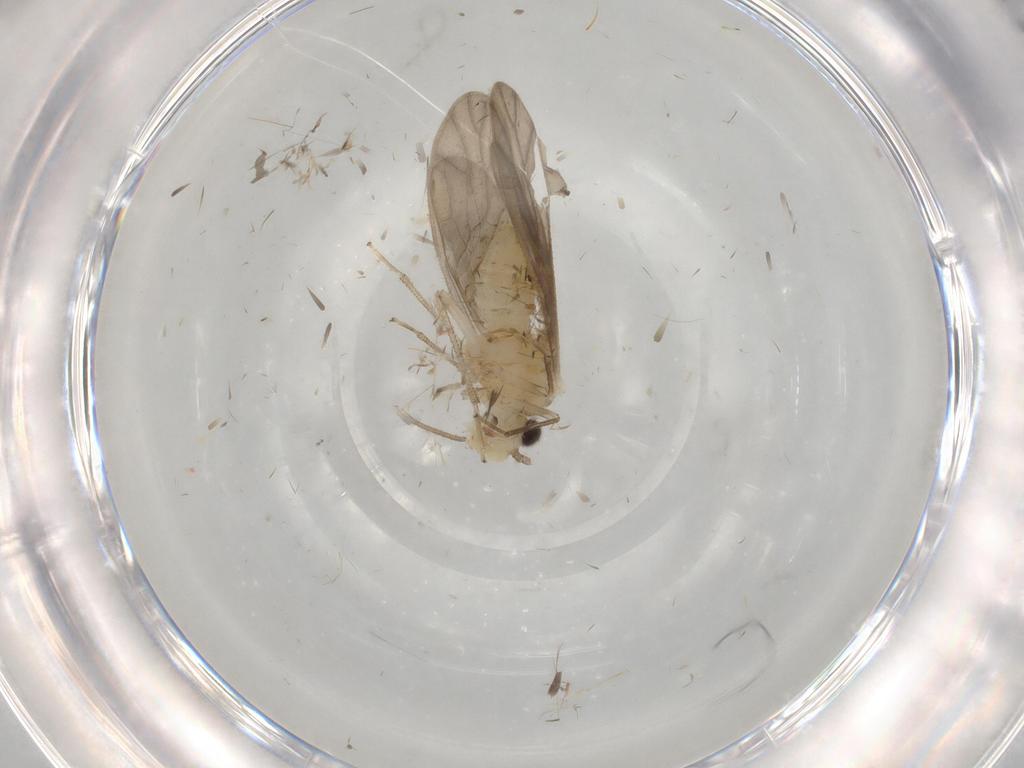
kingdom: Animalia
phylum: Arthropoda
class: Insecta
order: Psocodea
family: Caeciliusidae
